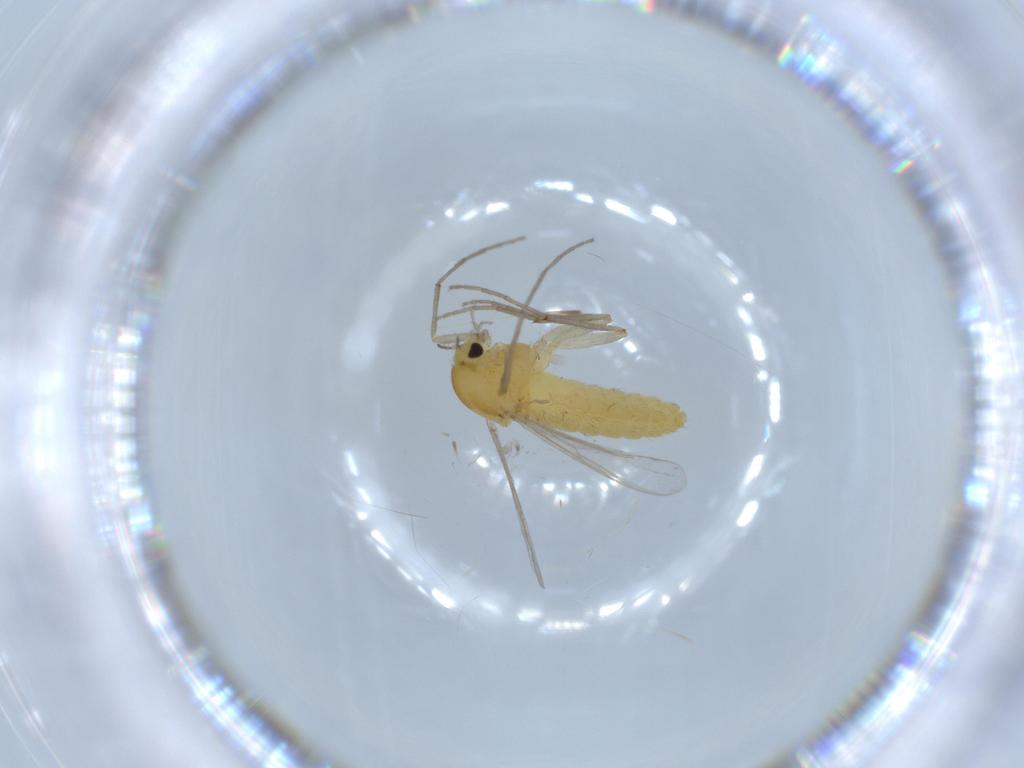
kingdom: Animalia
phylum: Arthropoda
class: Insecta
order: Diptera
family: Chironomidae
